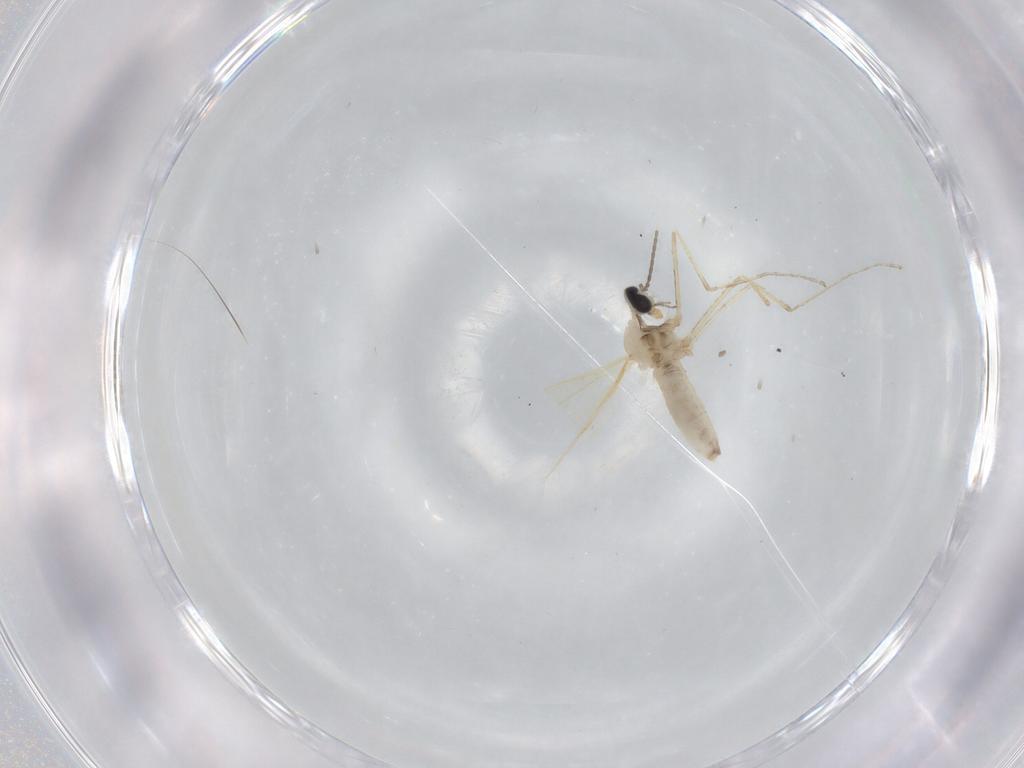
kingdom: Animalia
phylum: Arthropoda
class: Insecta
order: Diptera
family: Cecidomyiidae
